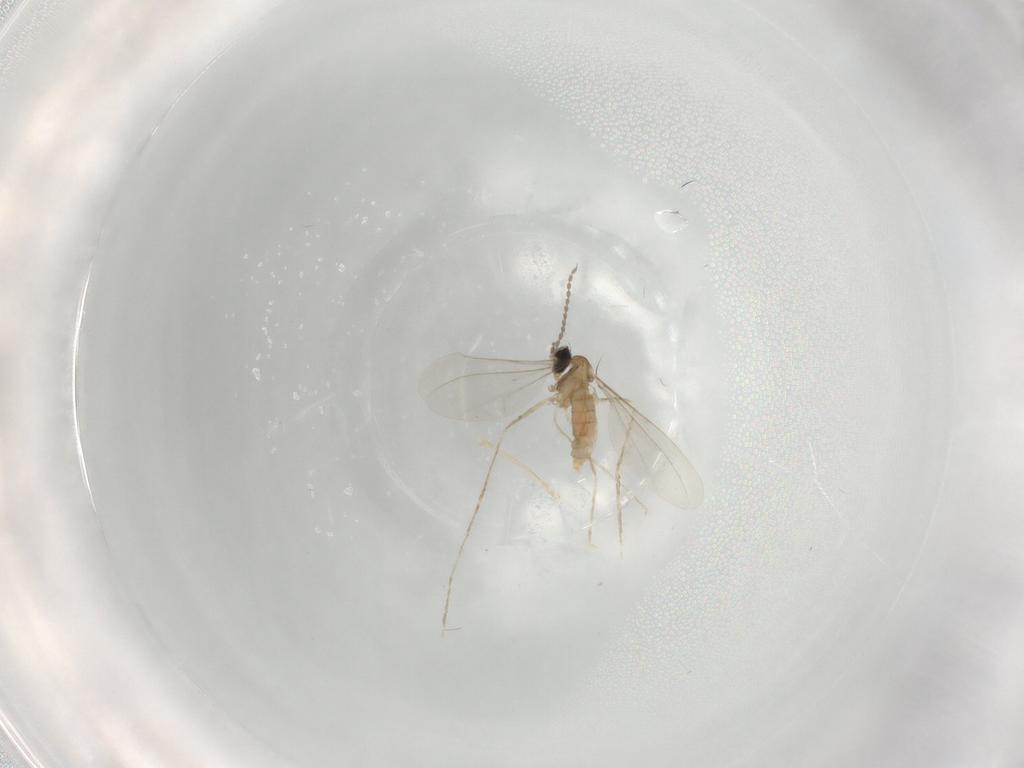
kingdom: Animalia
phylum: Arthropoda
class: Insecta
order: Diptera
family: Cecidomyiidae
